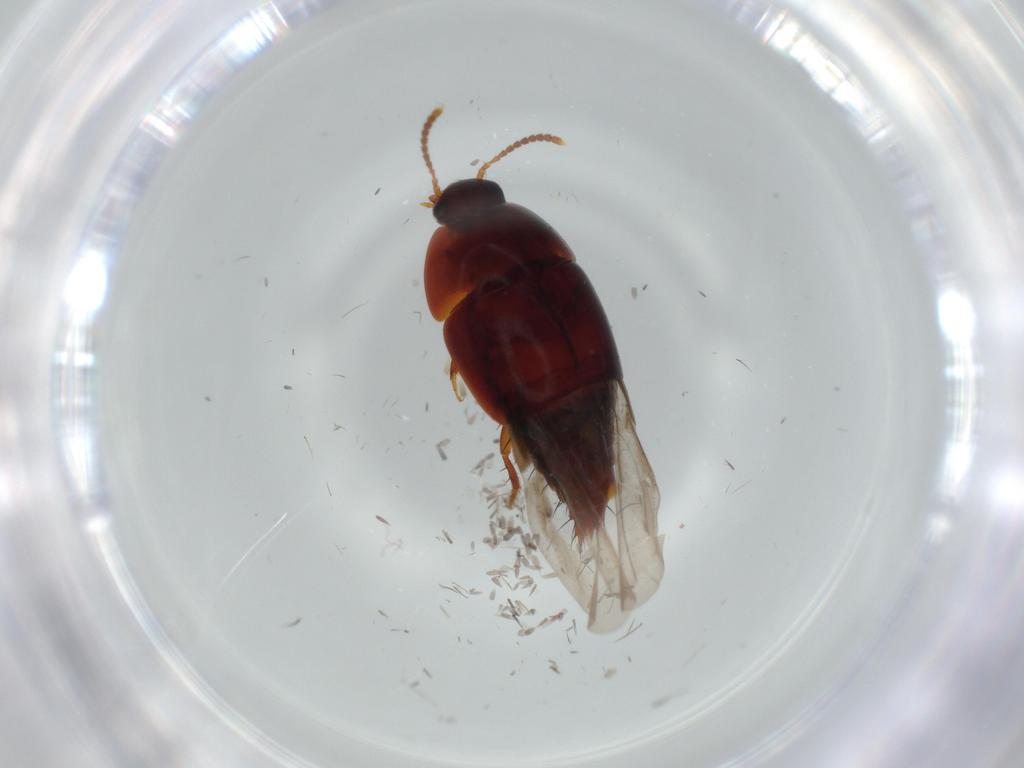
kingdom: Animalia
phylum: Arthropoda
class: Insecta
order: Coleoptera
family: Staphylinidae
